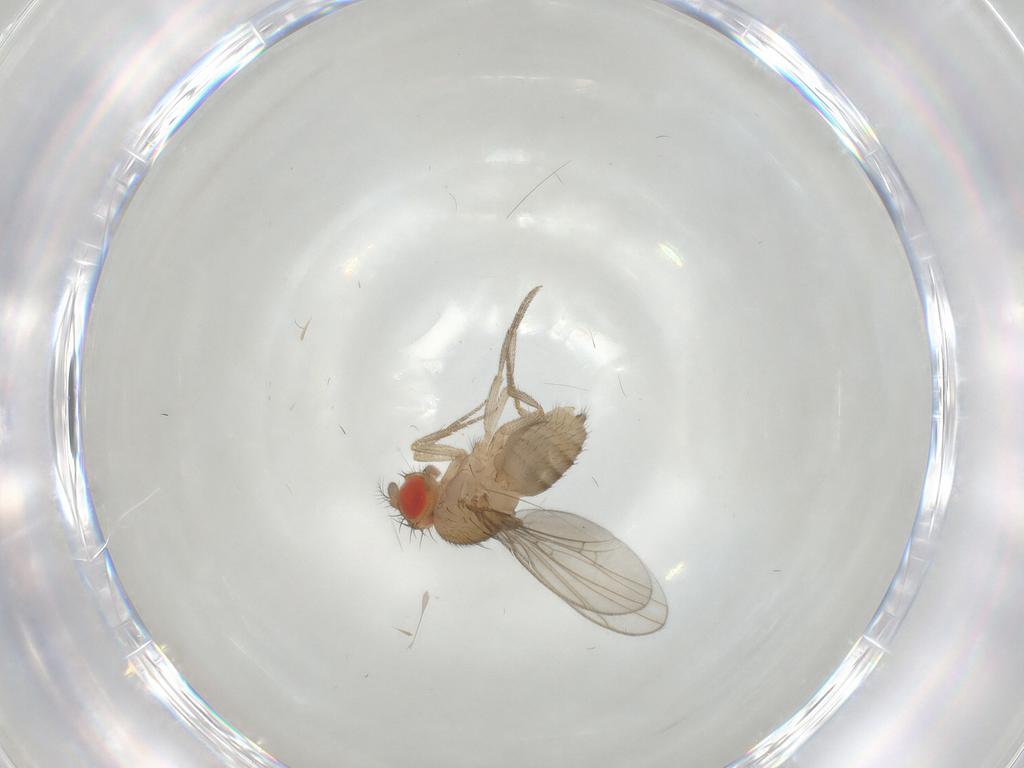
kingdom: Animalia
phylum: Arthropoda
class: Insecta
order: Diptera
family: Drosophilidae
